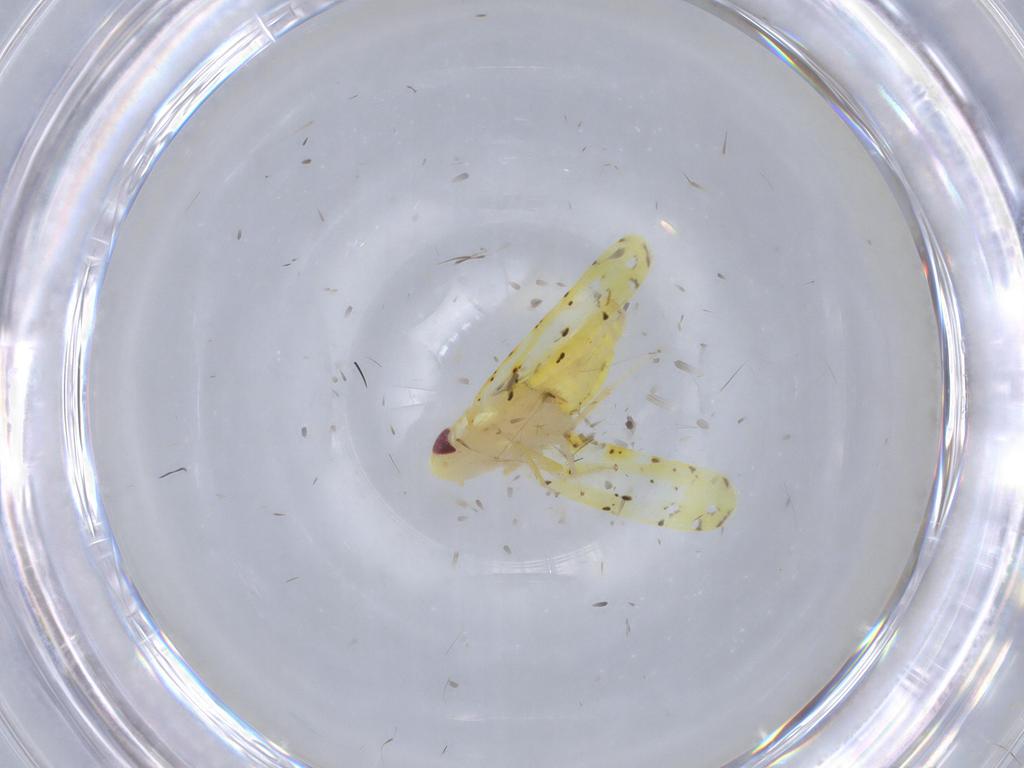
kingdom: Animalia
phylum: Arthropoda
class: Insecta
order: Hemiptera
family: Cicadellidae
